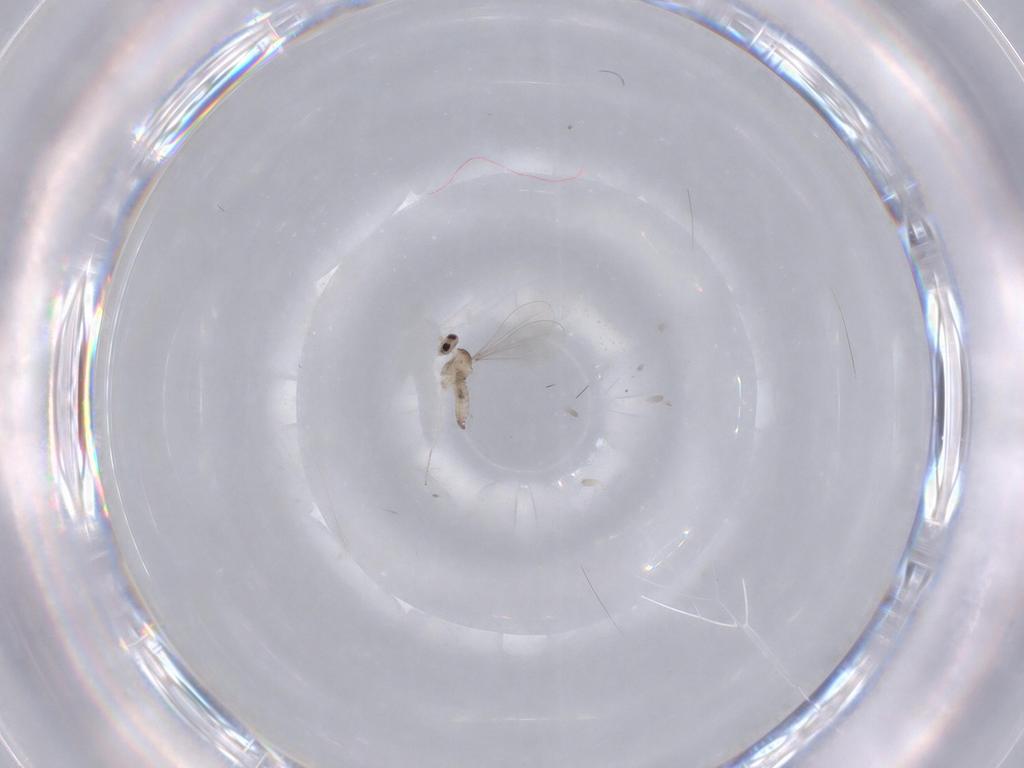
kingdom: Animalia
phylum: Arthropoda
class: Insecta
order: Diptera
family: Cecidomyiidae
